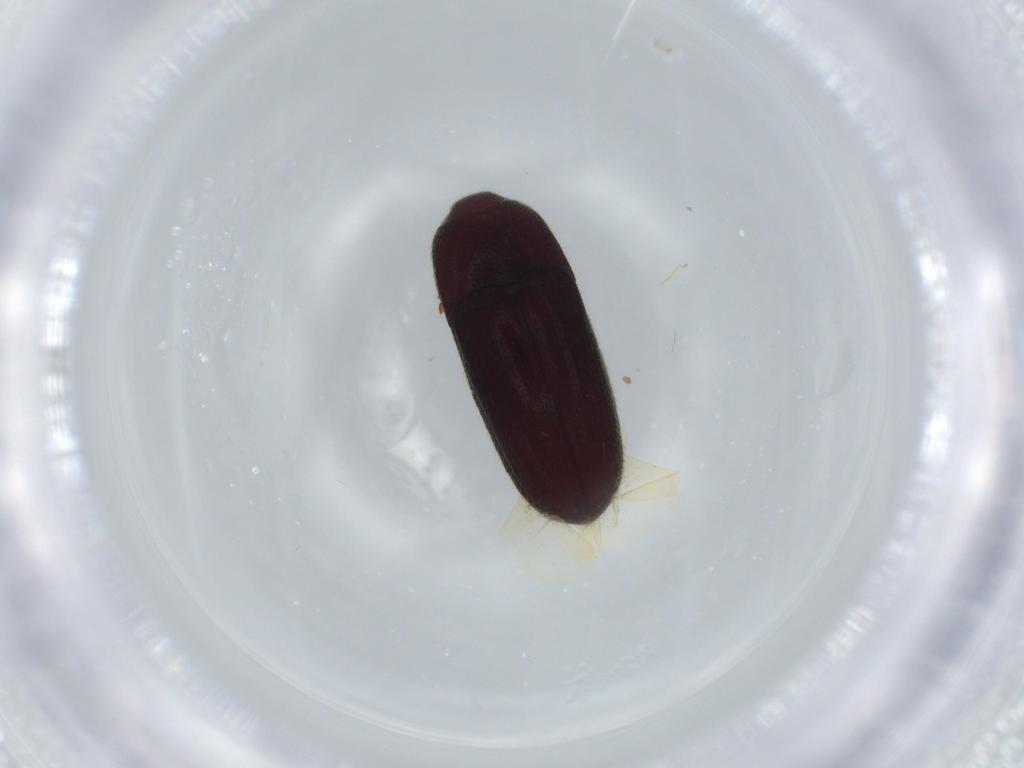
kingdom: Animalia
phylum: Arthropoda
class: Insecta
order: Coleoptera
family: Throscidae
